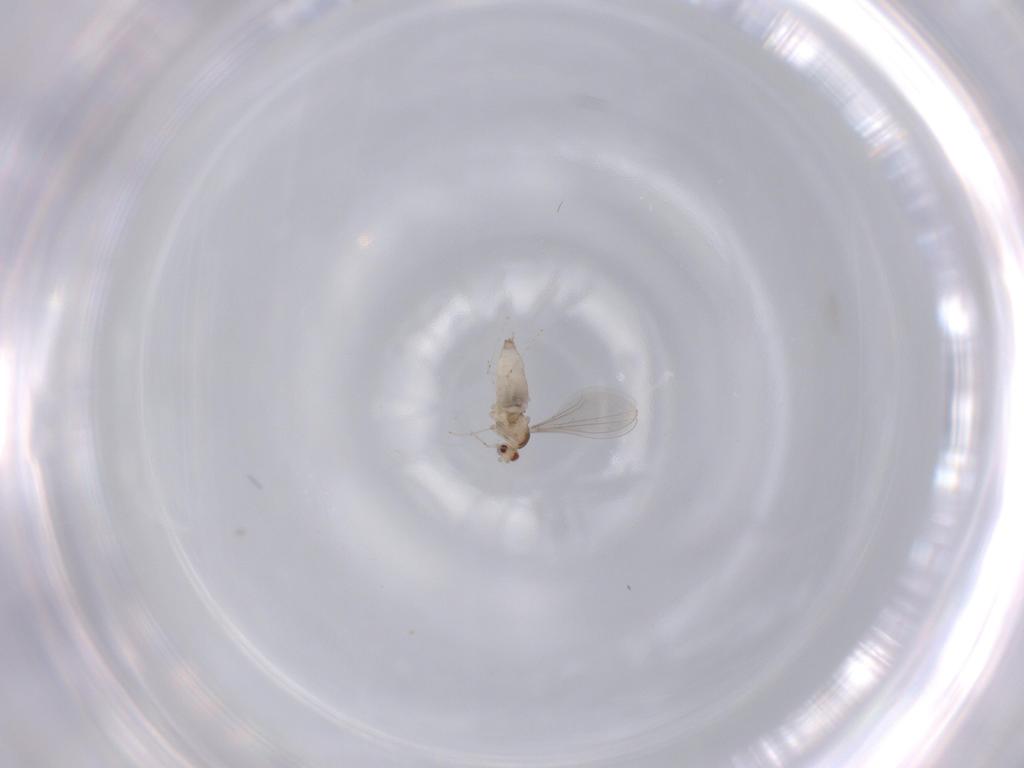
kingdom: Animalia
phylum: Arthropoda
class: Insecta
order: Diptera
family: Cecidomyiidae
